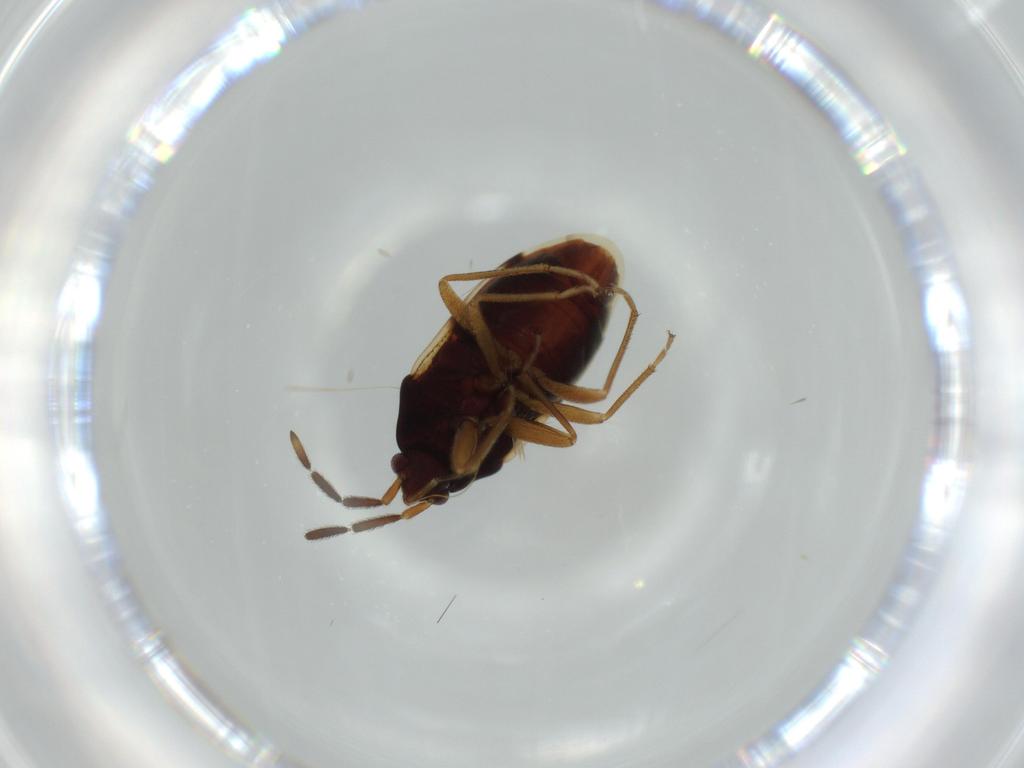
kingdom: Animalia
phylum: Arthropoda
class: Insecta
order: Hemiptera
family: Rhyparochromidae
